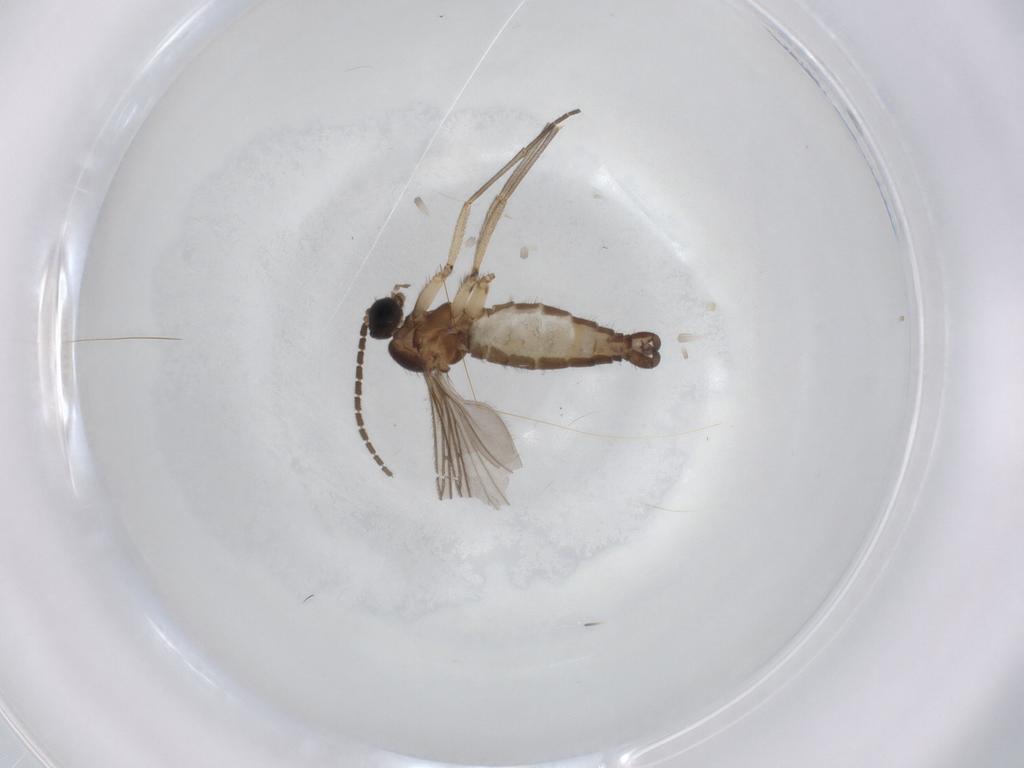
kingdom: Animalia
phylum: Arthropoda
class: Insecta
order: Diptera
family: Sciaridae
